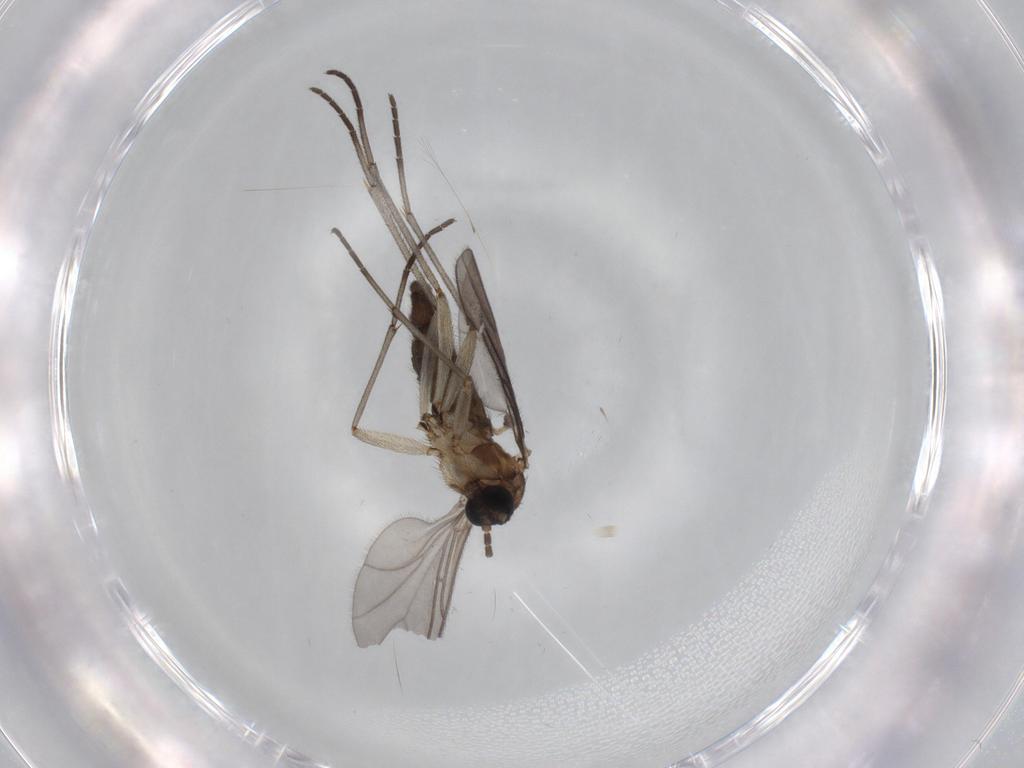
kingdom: Animalia
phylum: Arthropoda
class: Insecta
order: Diptera
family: Sciaridae
